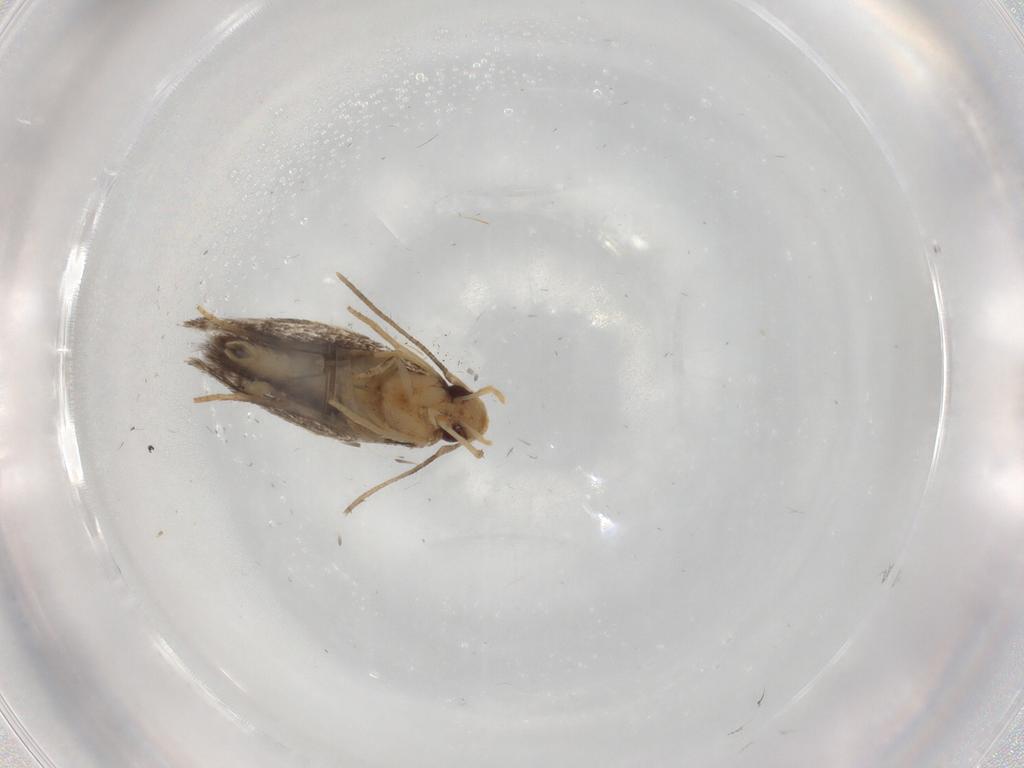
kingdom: Animalia
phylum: Arthropoda
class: Insecta
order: Lepidoptera
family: Gelechiidae
